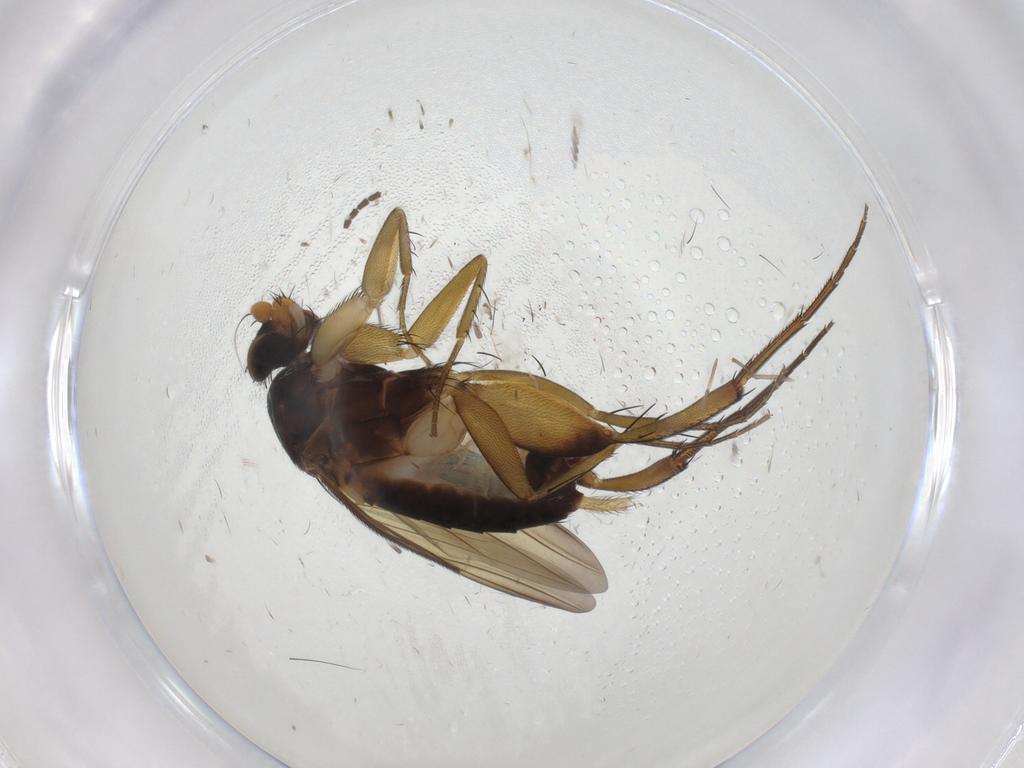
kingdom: Animalia
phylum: Arthropoda
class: Insecta
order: Diptera
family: Phoridae
